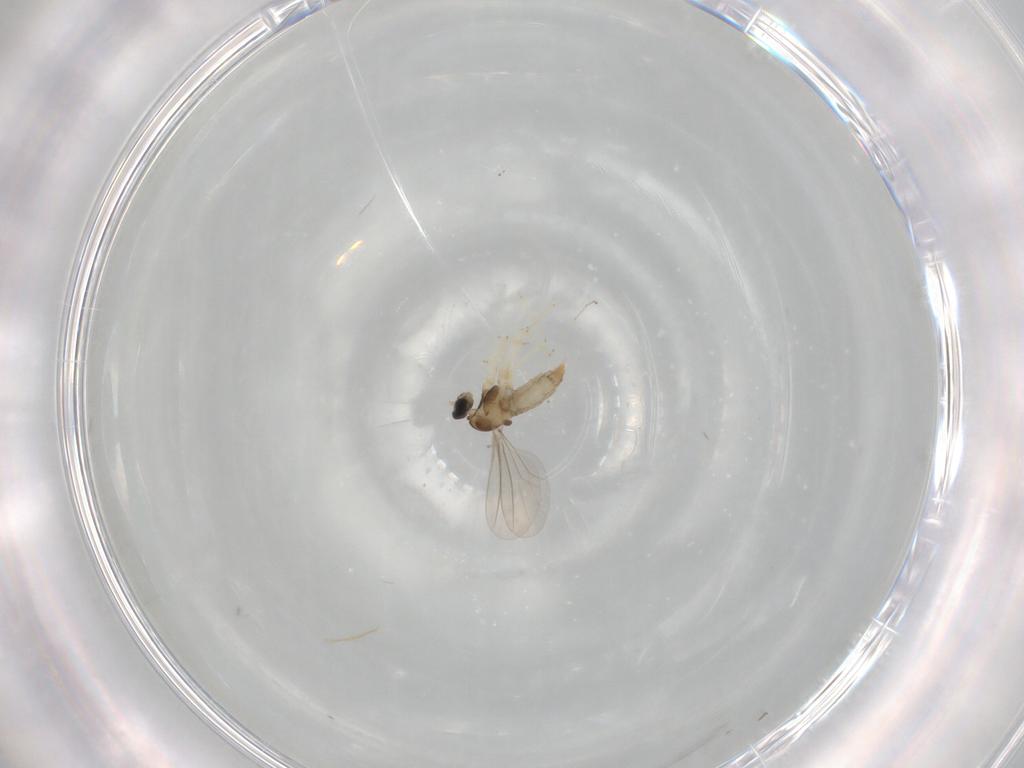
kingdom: Animalia
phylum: Arthropoda
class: Insecta
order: Diptera
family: Cecidomyiidae
